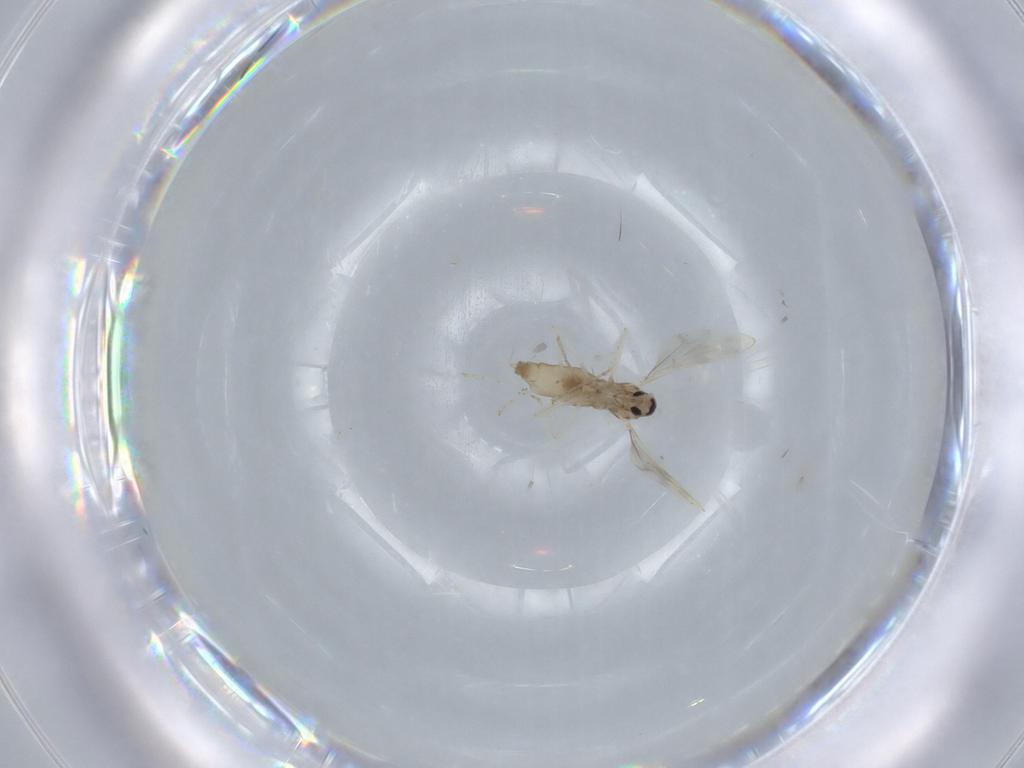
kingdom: Animalia
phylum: Arthropoda
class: Insecta
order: Diptera
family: Cecidomyiidae
